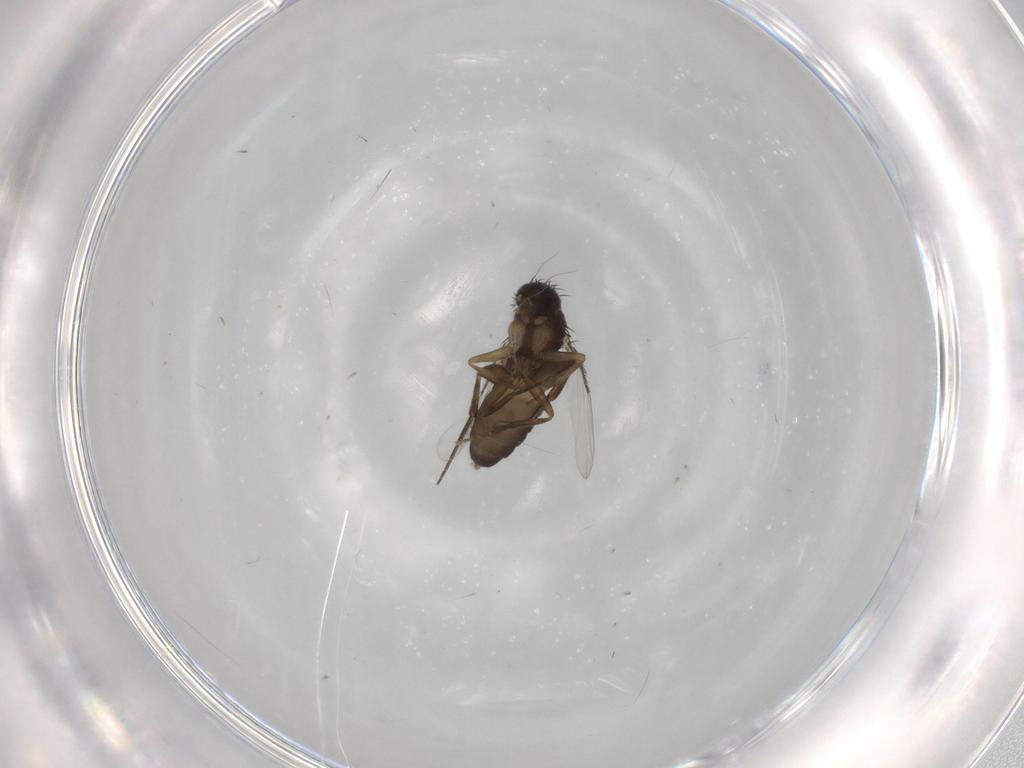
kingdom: Animalia
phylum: Arthropoda
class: Insecta
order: Diptera
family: Phoridae
